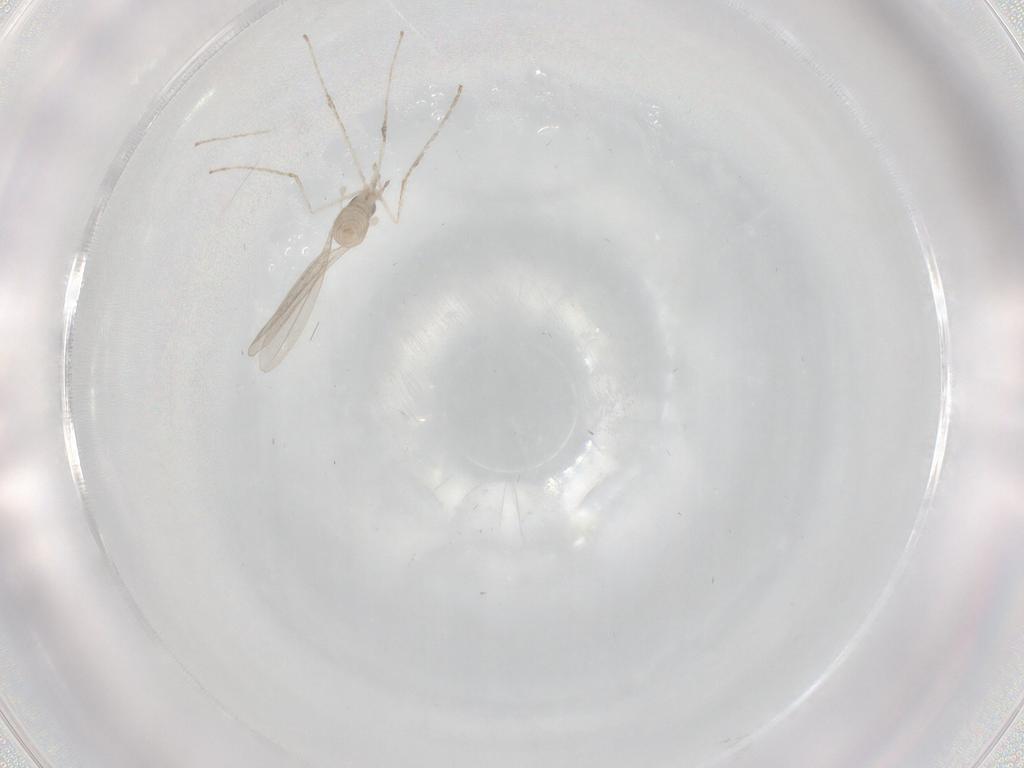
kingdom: Animalia
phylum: Arthropoda
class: Insecta
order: Diptera
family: Cecidomyiidae
